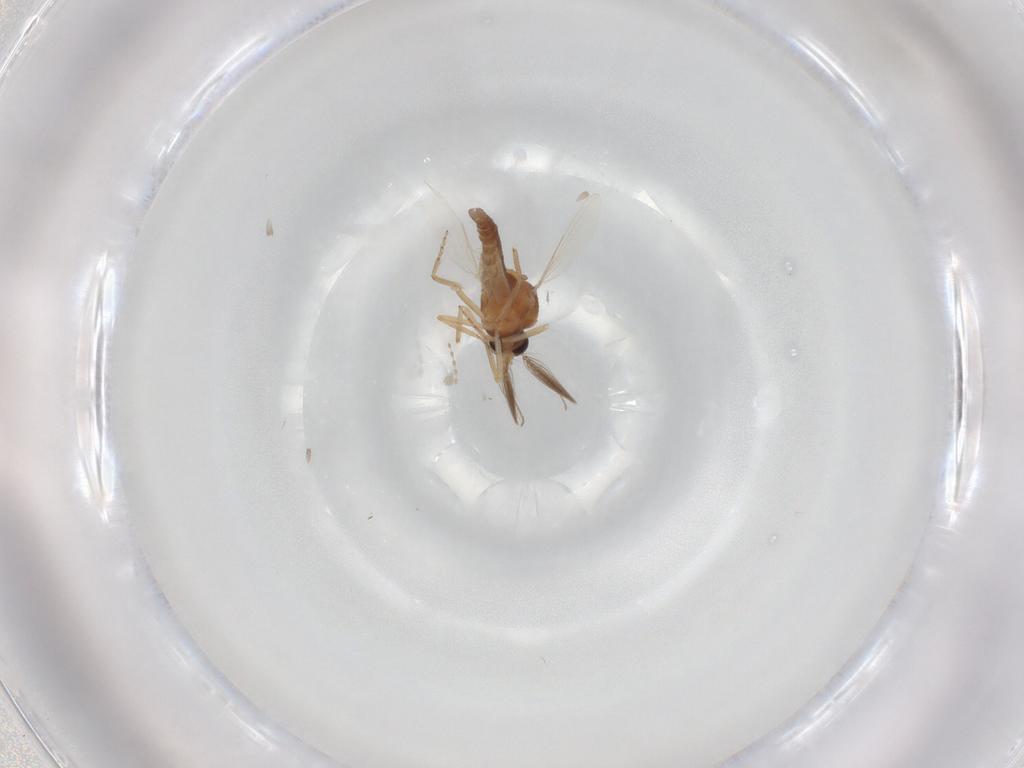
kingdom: Animalia
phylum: Arthropoda
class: Insecta
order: Diptera
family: Ceratopogonidae
